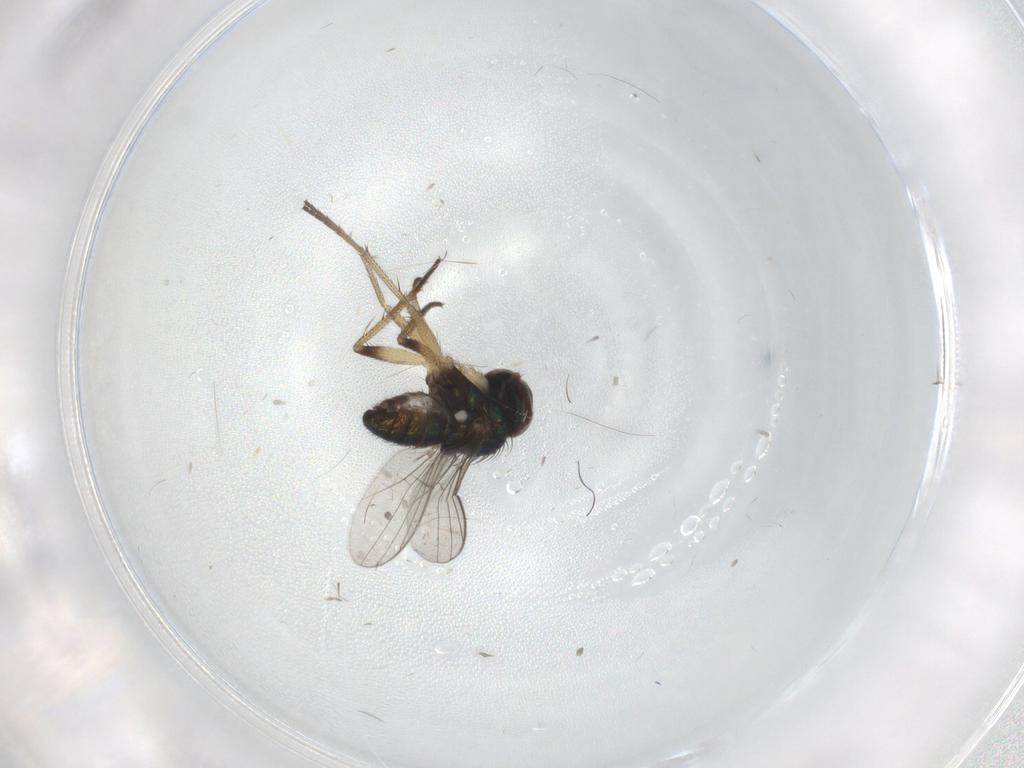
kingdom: Animalia
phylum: Arthropoda
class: Insecta
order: Diptera
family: Dolichopodidae
